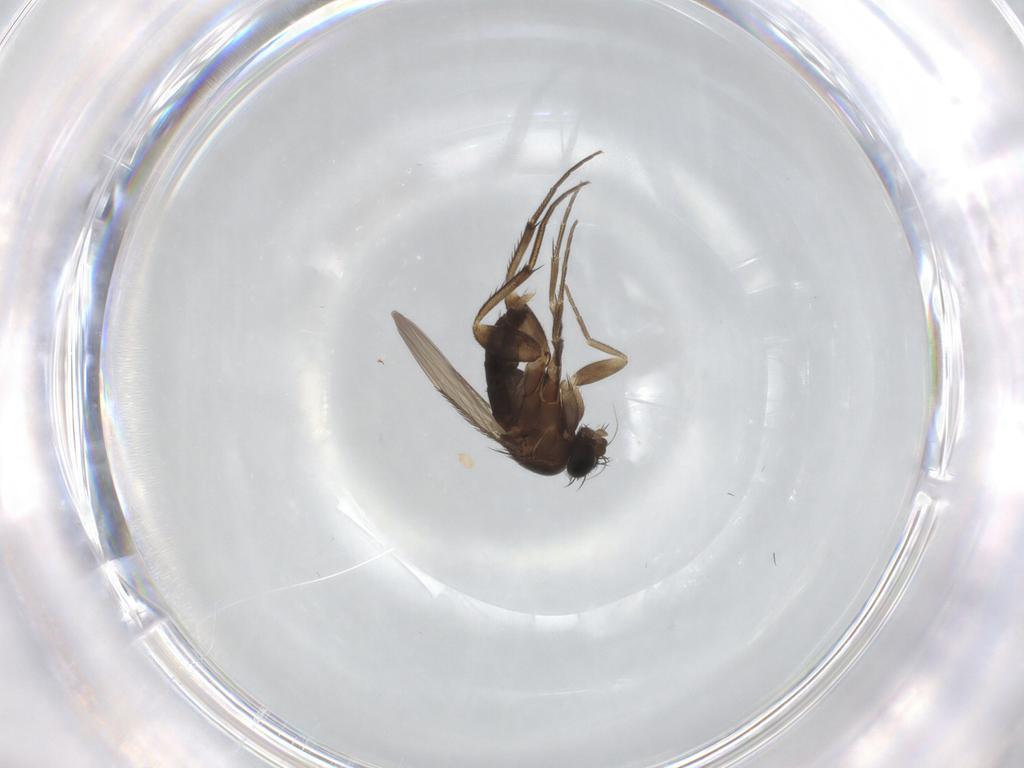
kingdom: Animalia
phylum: Arthropoda
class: Insecta
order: Diptera
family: Phoridae
